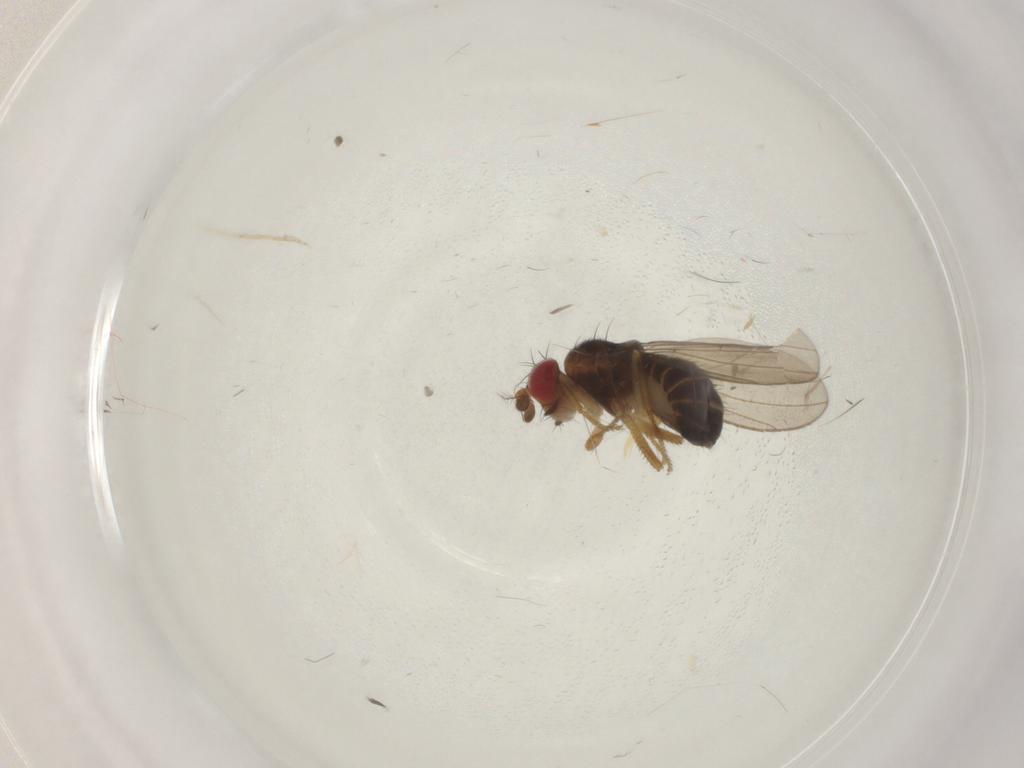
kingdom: Animalia
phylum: Arthropoda
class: Insecta
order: Diptera
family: Drosophilidae
